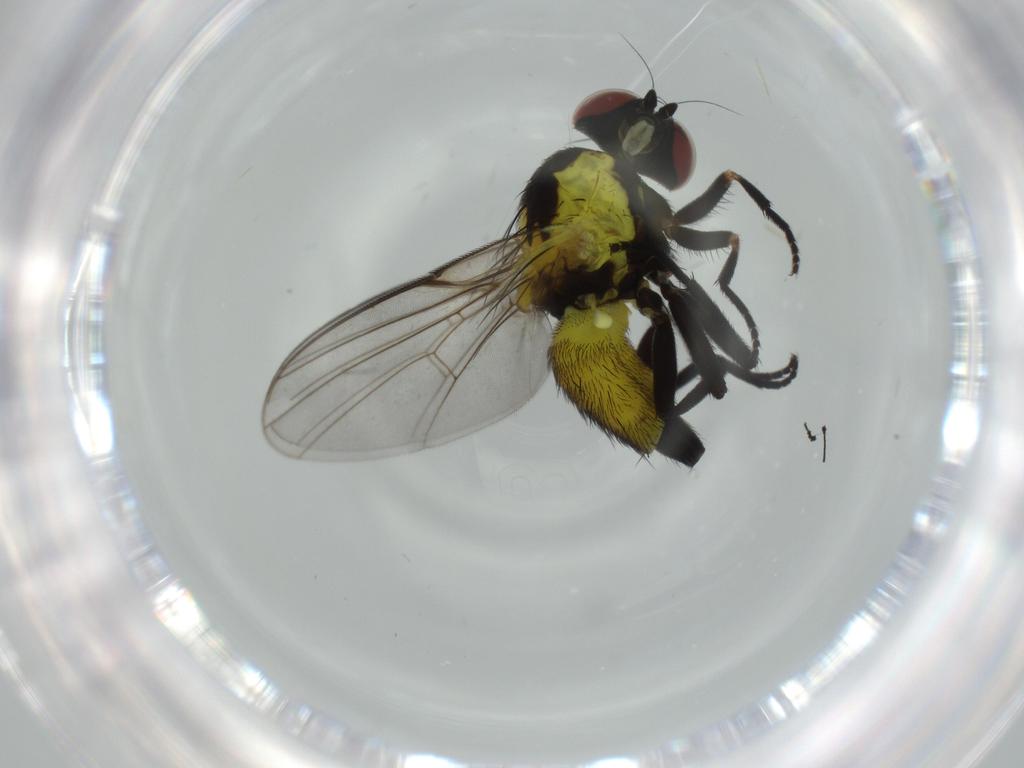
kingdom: Animalia
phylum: Arthropoda
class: Insecta
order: Diptera
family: Agromyzidae
